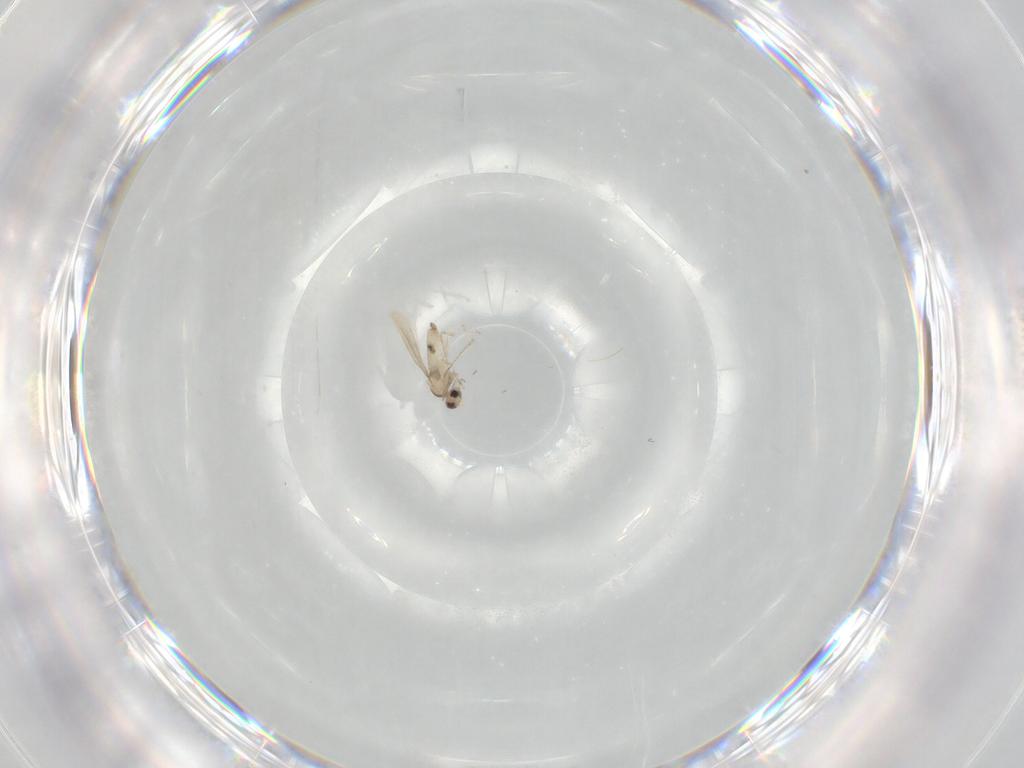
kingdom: Animalia
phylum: Arthropoda
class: Insecta
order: Diptera
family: Cecidomyiidae
